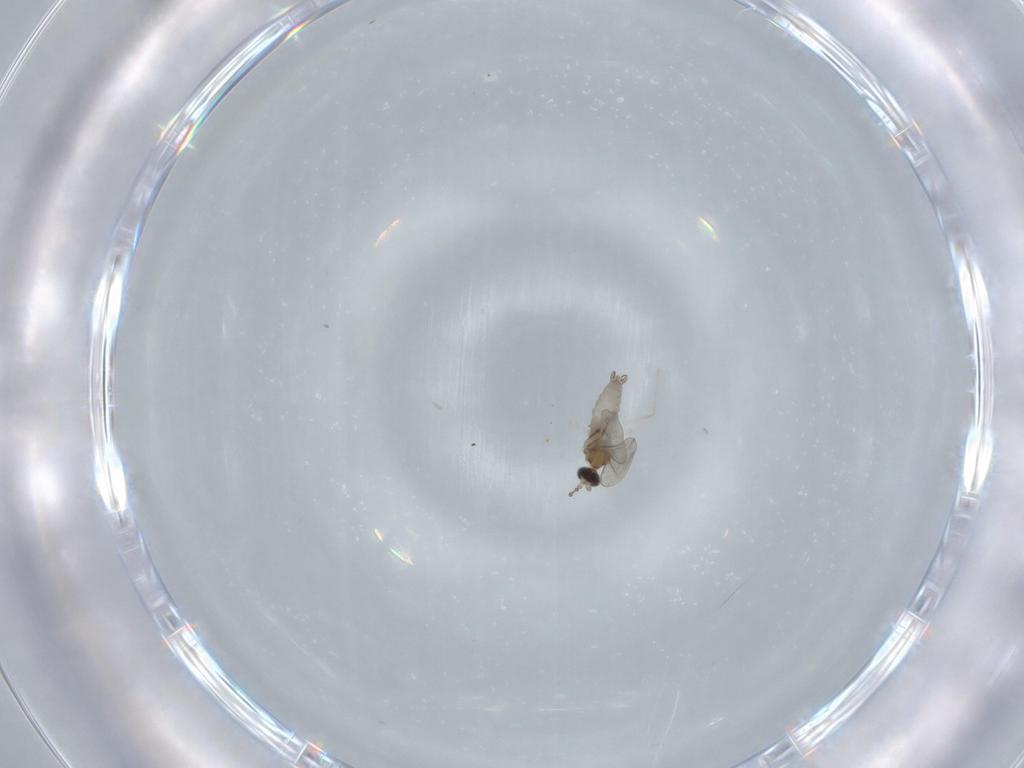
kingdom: Animalia
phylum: Arthropoda
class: Insecta
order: Diptera
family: Cecidomyiidae
